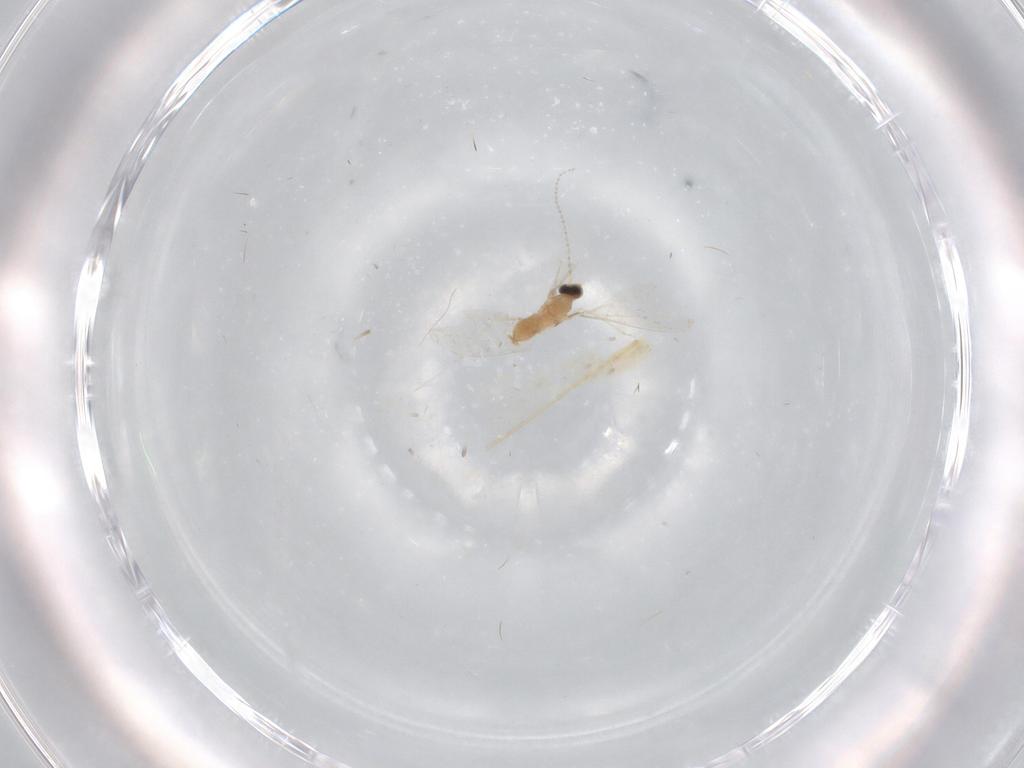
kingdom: Animalia
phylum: Arthropoda
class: Insecta
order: Diptera
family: Cecidomyiidae
